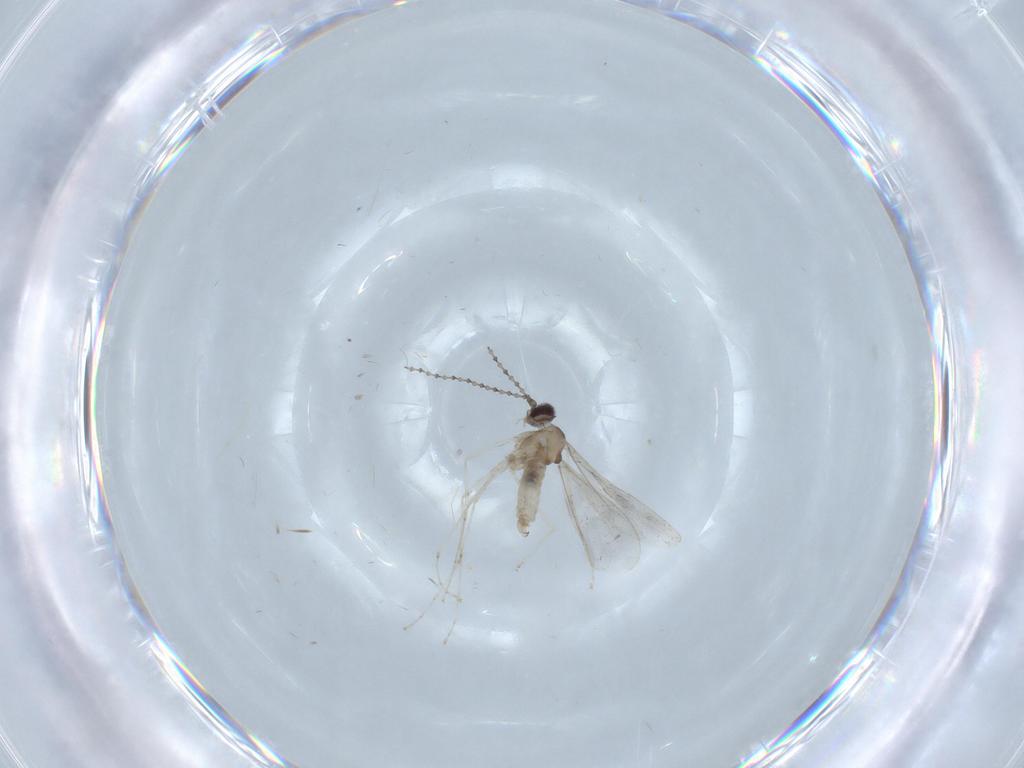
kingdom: Animalia
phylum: Arthropoda
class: Insecta
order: Diptera
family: Cecidomyiidae
